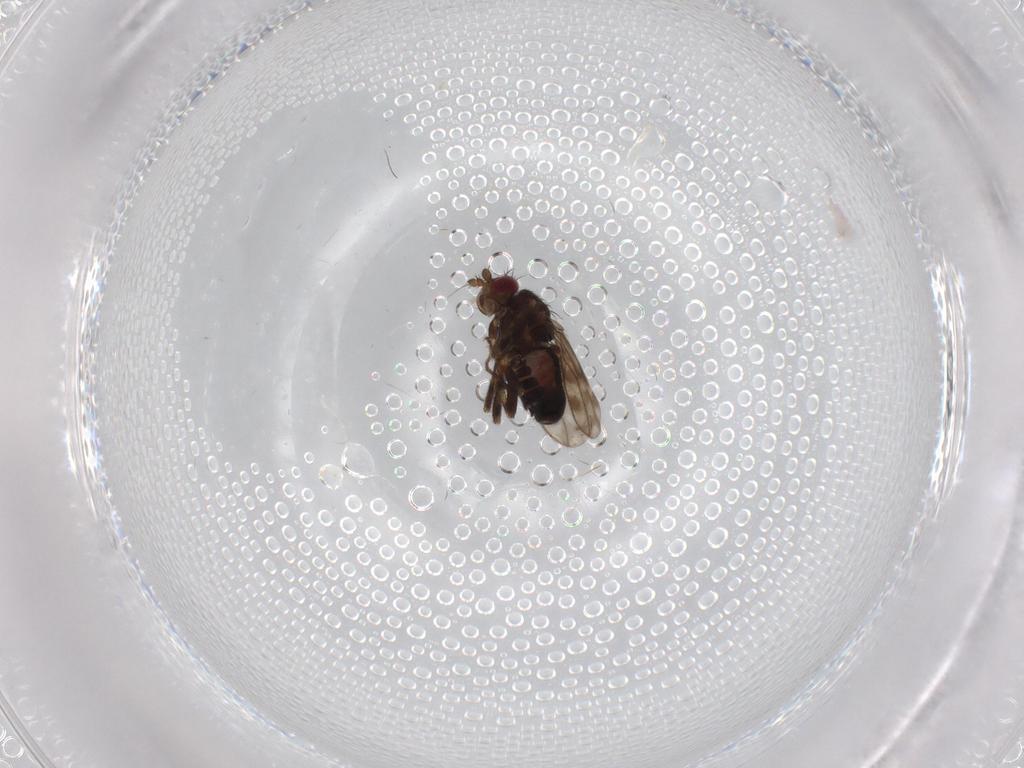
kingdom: Animalia
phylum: Arthropoda
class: Insecta
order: Diptera
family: Sphaeroceridae
